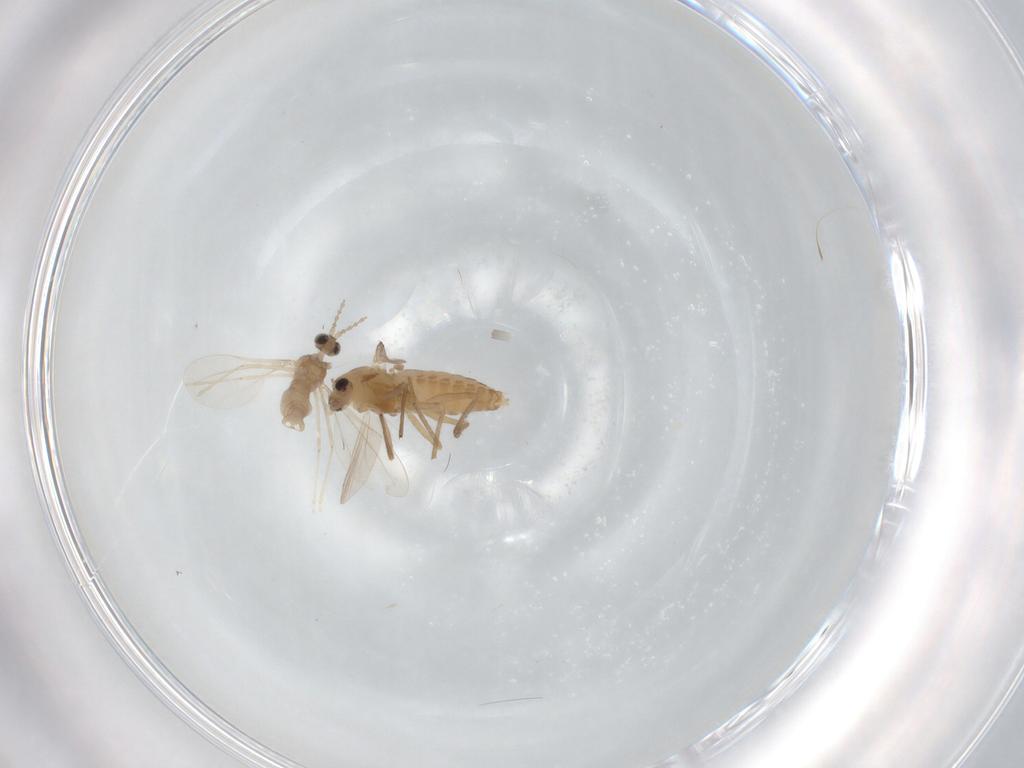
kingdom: Animalia
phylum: Arthropoda
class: Insecta
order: Diptera
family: Cecidomyiidae
